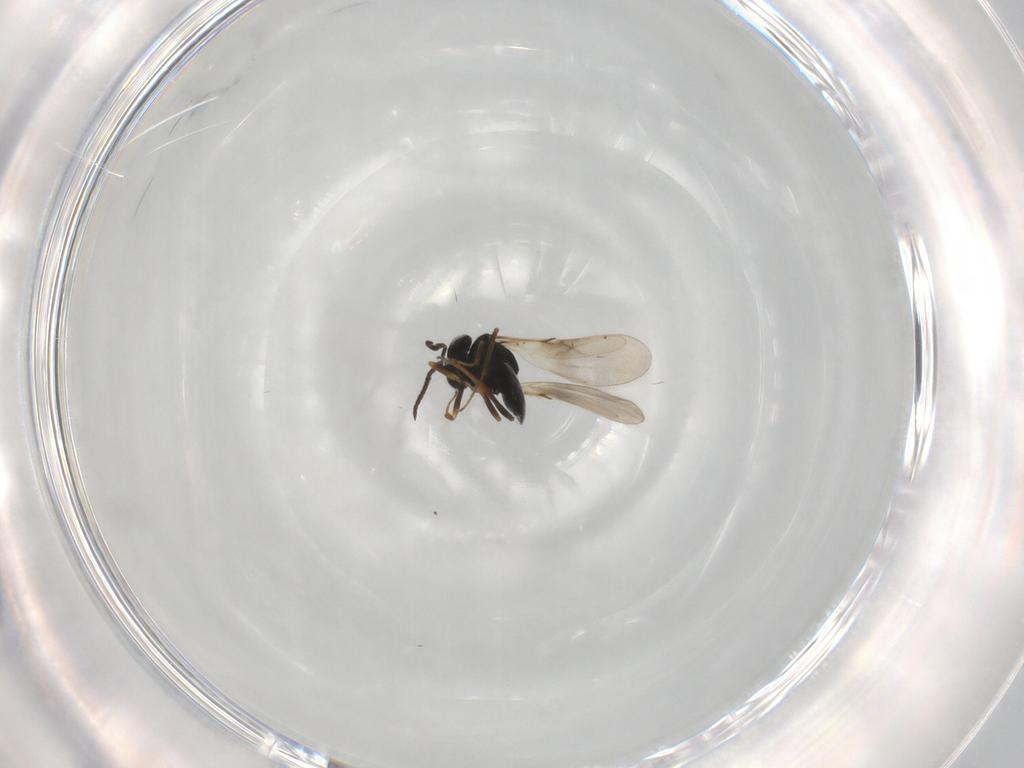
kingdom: Animalia
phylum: Arthropoda
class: Insecta
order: Hymenoptera
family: Scelionidae
